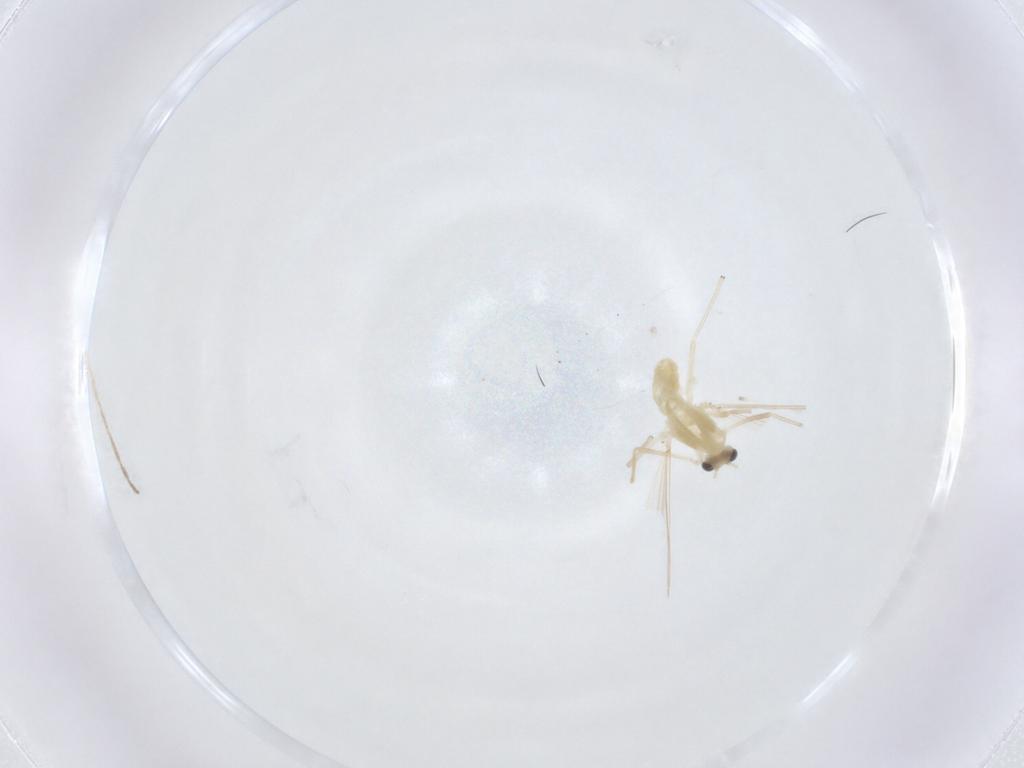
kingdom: Animalia
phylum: Arthropoda
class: Insecta
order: Diptera
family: Chironomidae
